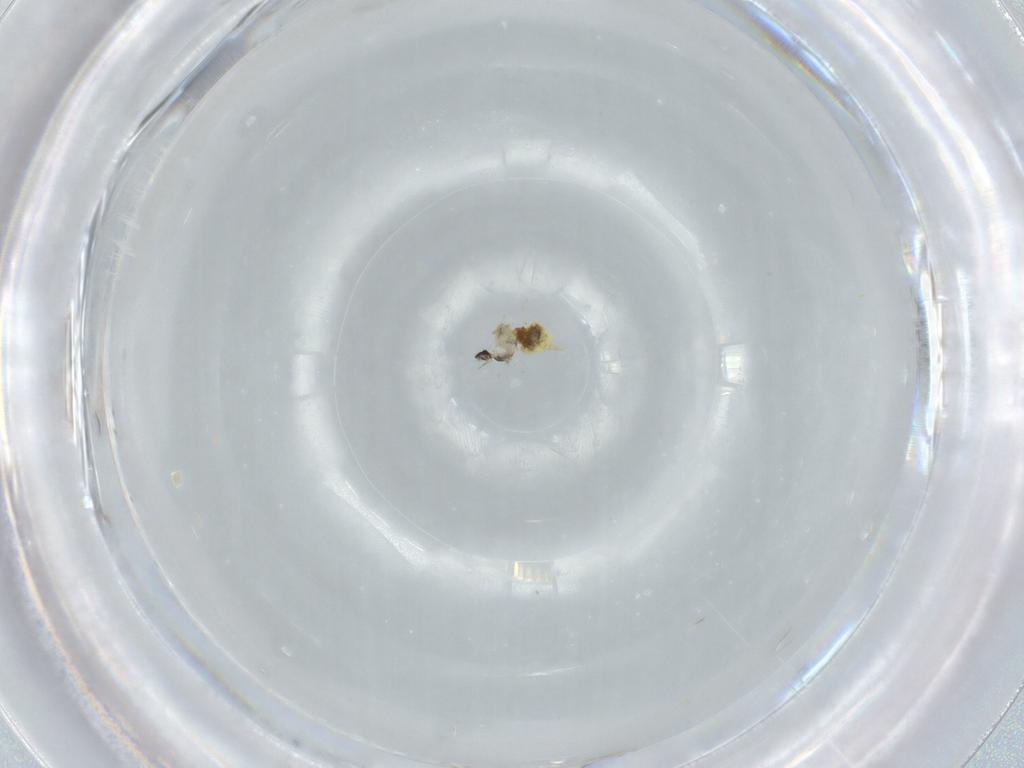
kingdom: Animalia
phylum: Arthropoda
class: Insecta
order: Diptera
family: Cecidomyiidae
